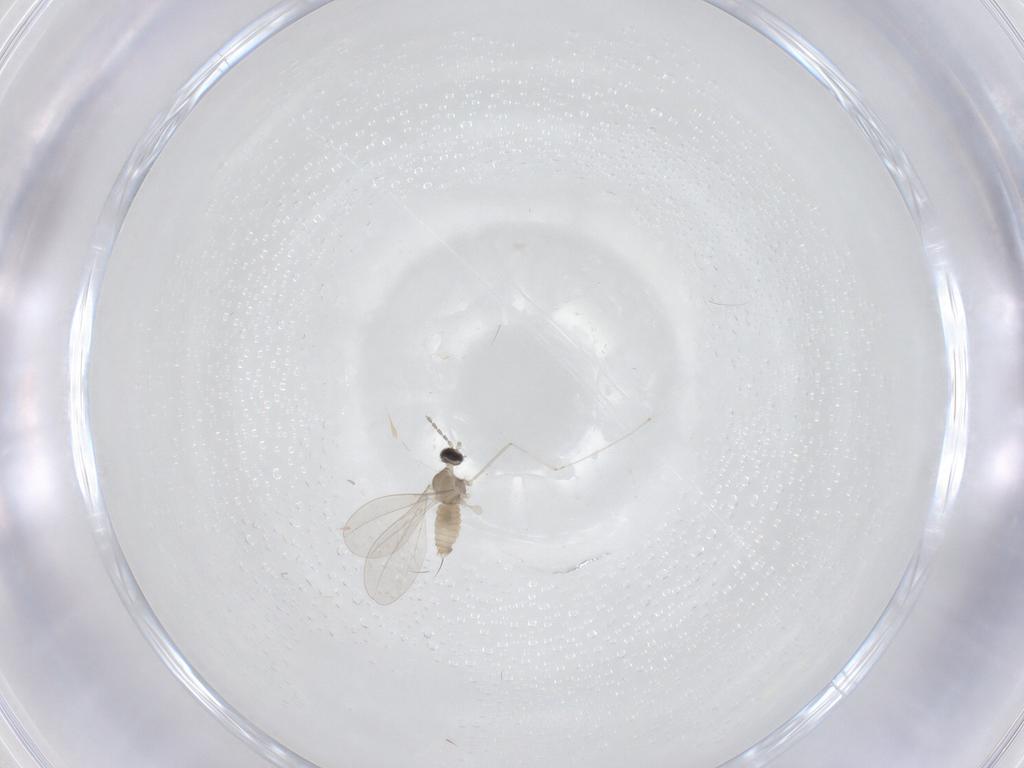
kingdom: Animalia
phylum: Arthropoda
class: Insecta
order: Diptera
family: Cecidomyiidae
